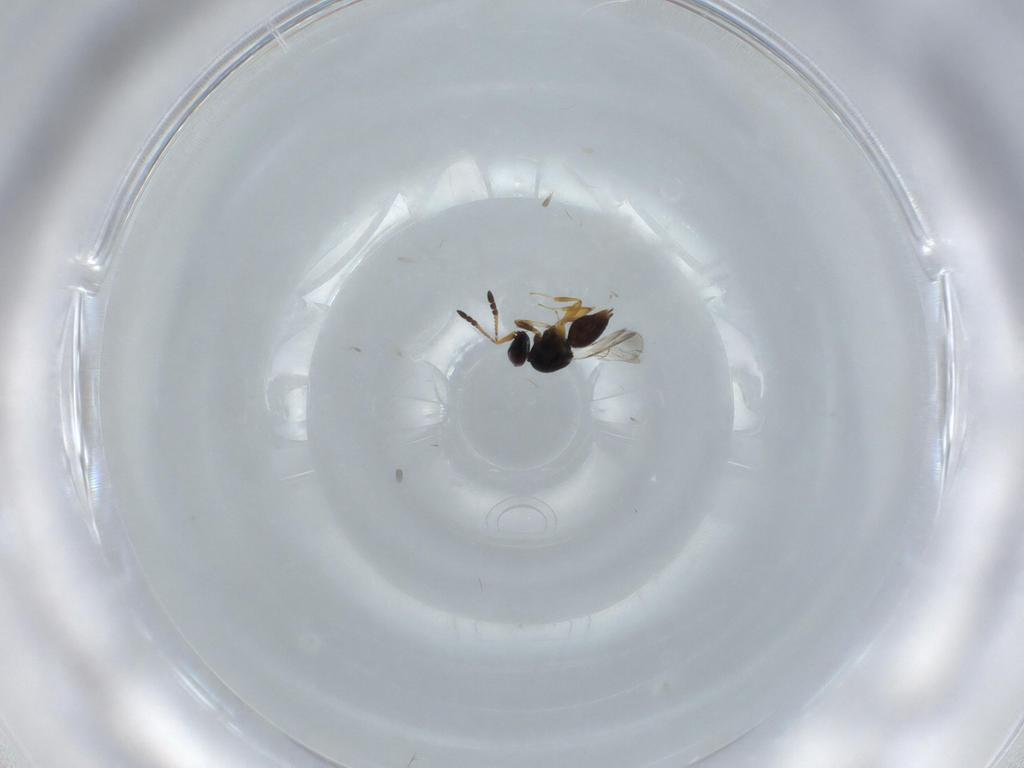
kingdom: Animalia
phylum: Arthropoda
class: Insecta
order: Hymenoptera
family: Ceraphronidae
